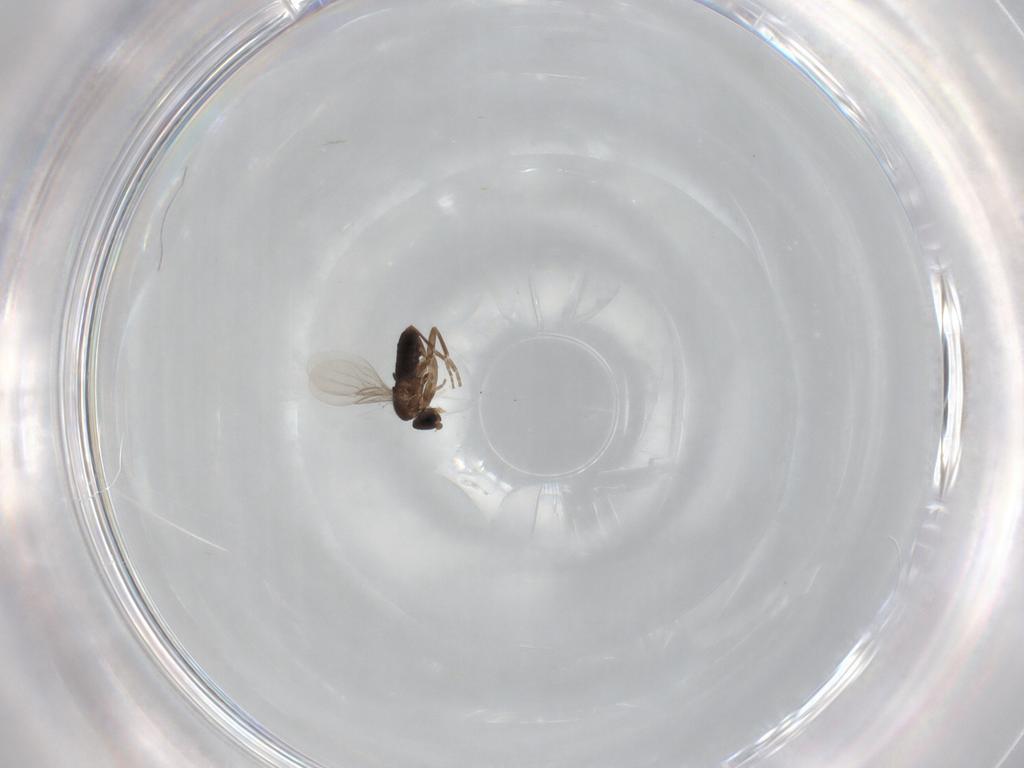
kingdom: Animalia
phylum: Arthropoda
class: Insecta
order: Diptera
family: Phoridae
